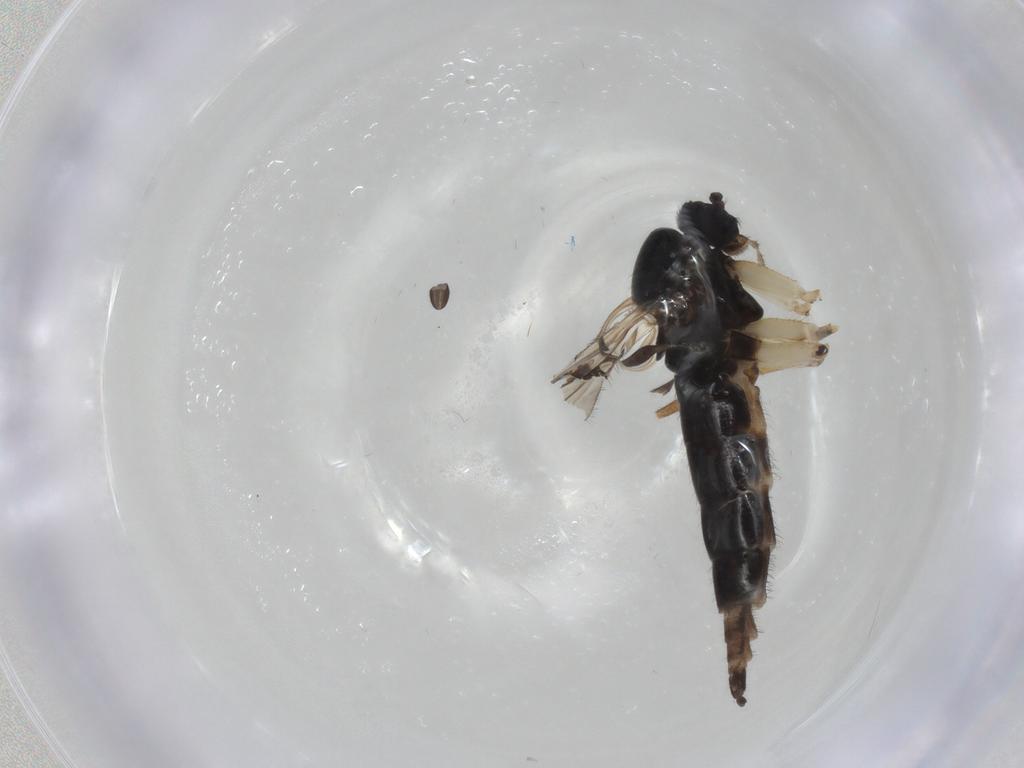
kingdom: Animalia
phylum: Arthropoda
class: Insecta
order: Diptera
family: Sciaridae
